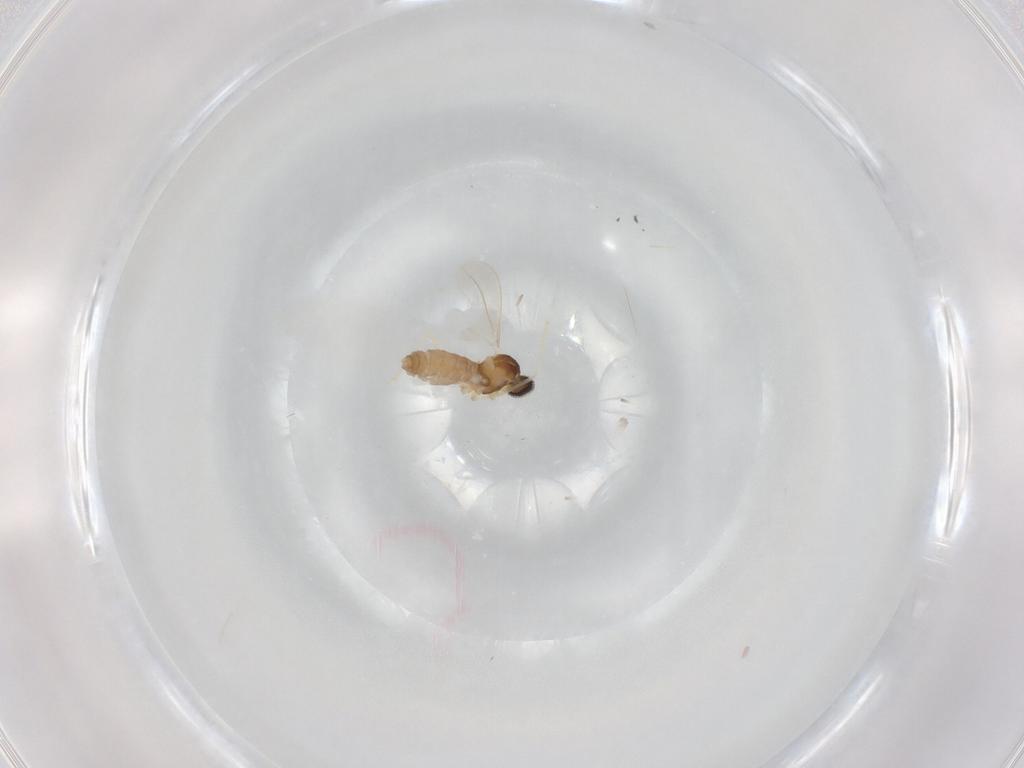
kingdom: Animalia
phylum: Arthropoda
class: Insecta
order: Diptera
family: Cecidomyiidae
